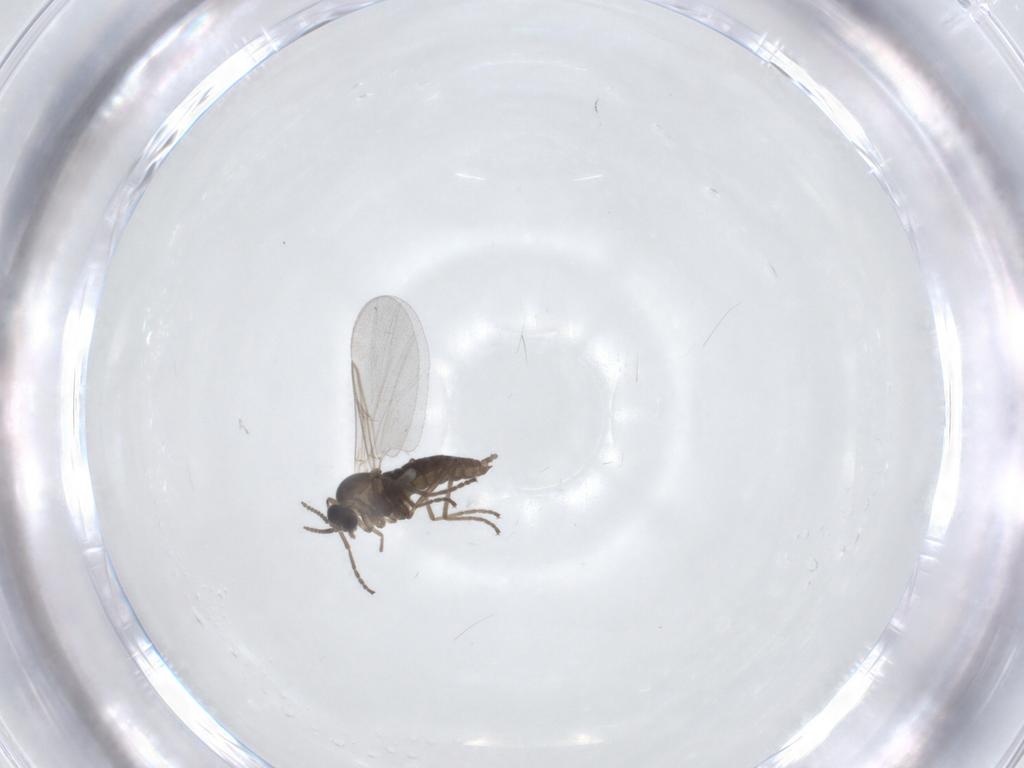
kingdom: Animalia
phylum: Arthropoda
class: Insecta
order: Diptera
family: Cecidomyiidae
